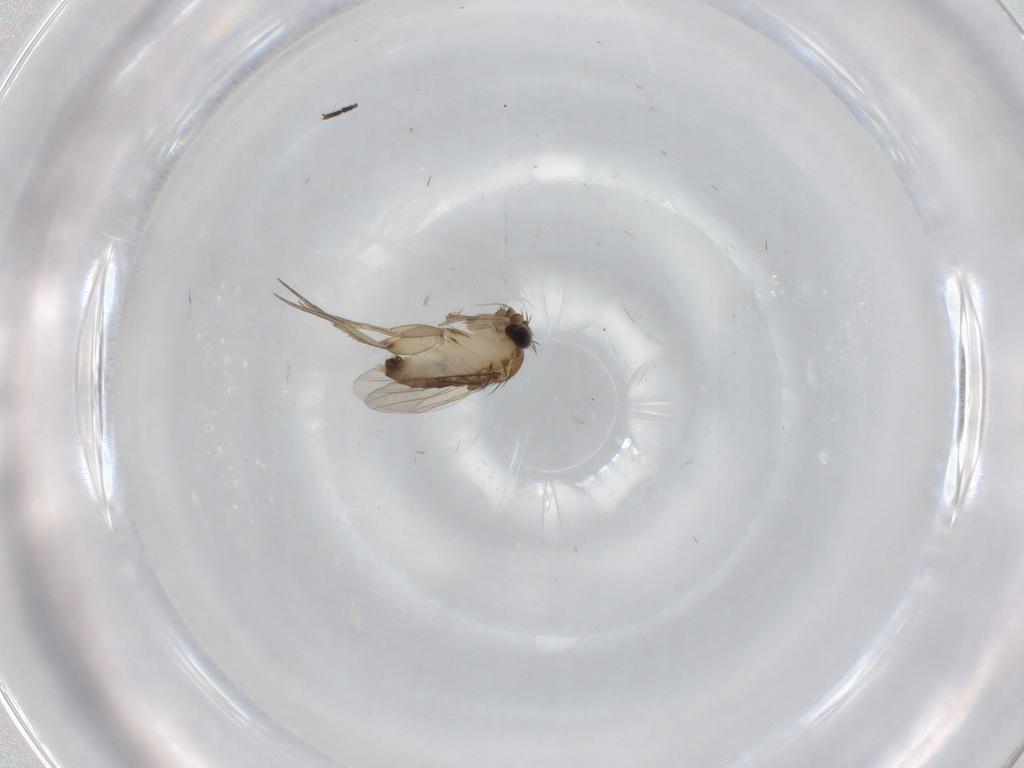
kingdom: Animalia
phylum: Arthropoda
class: Insecta
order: Diptera
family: Phoridae
